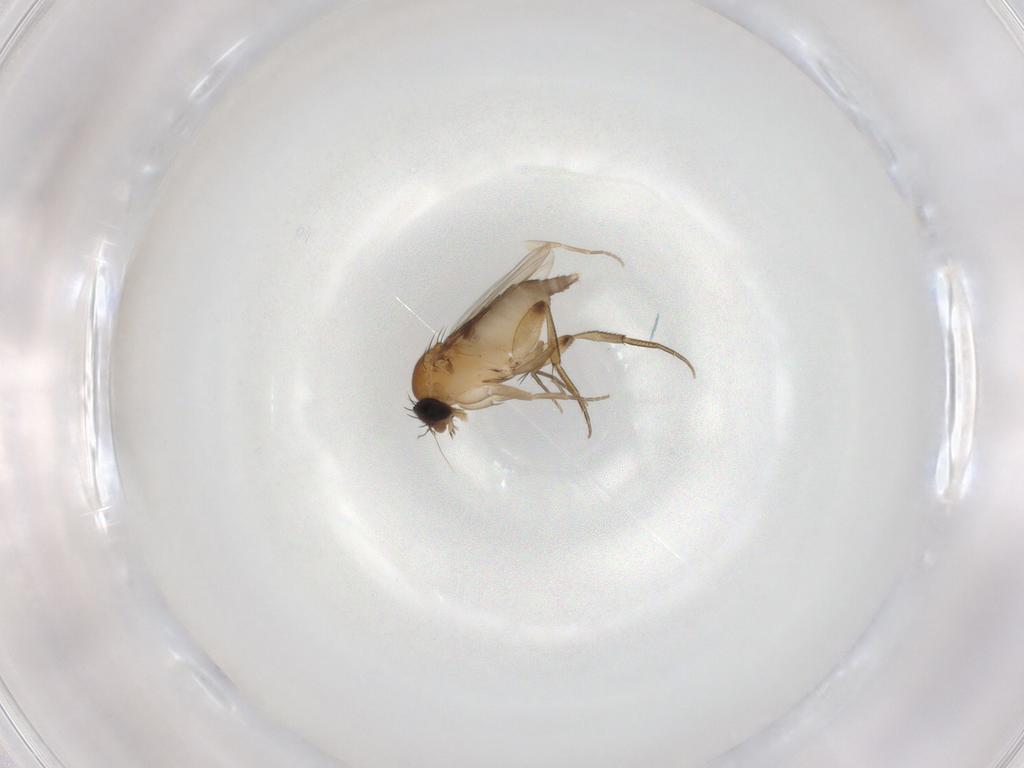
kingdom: Animalia
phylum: Arthropoda
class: Insecta
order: Diptera
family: Phoridae
